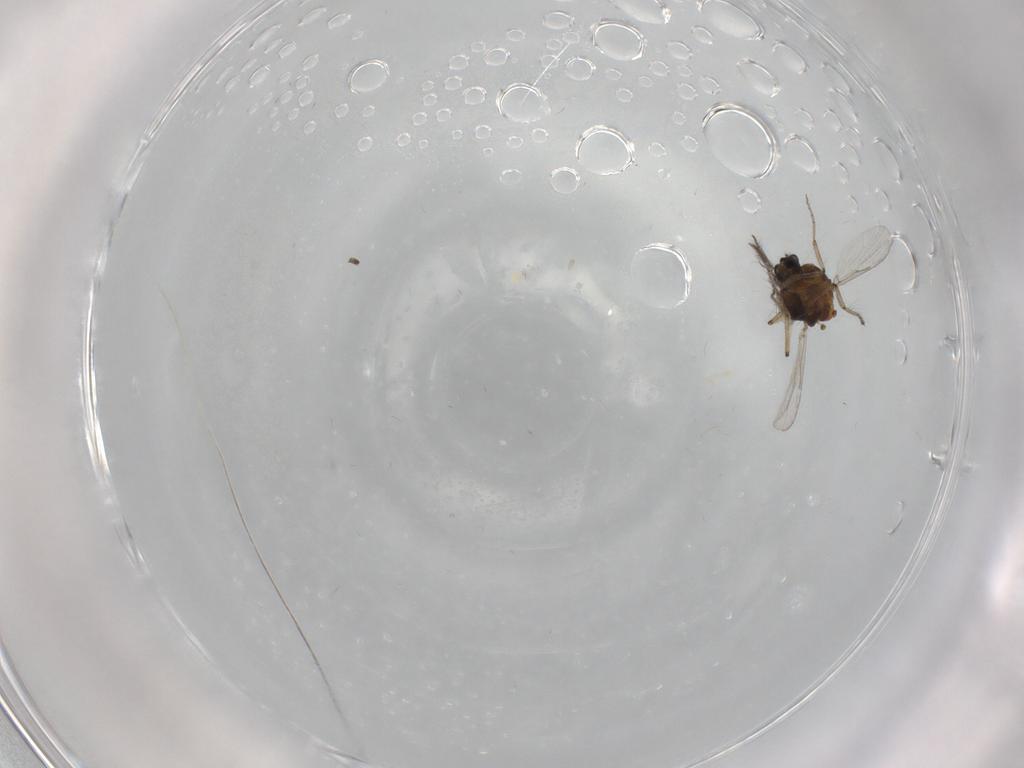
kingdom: Animalia
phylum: Arthropoda
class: Insecta
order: Diptera
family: Ceratopogonidae
